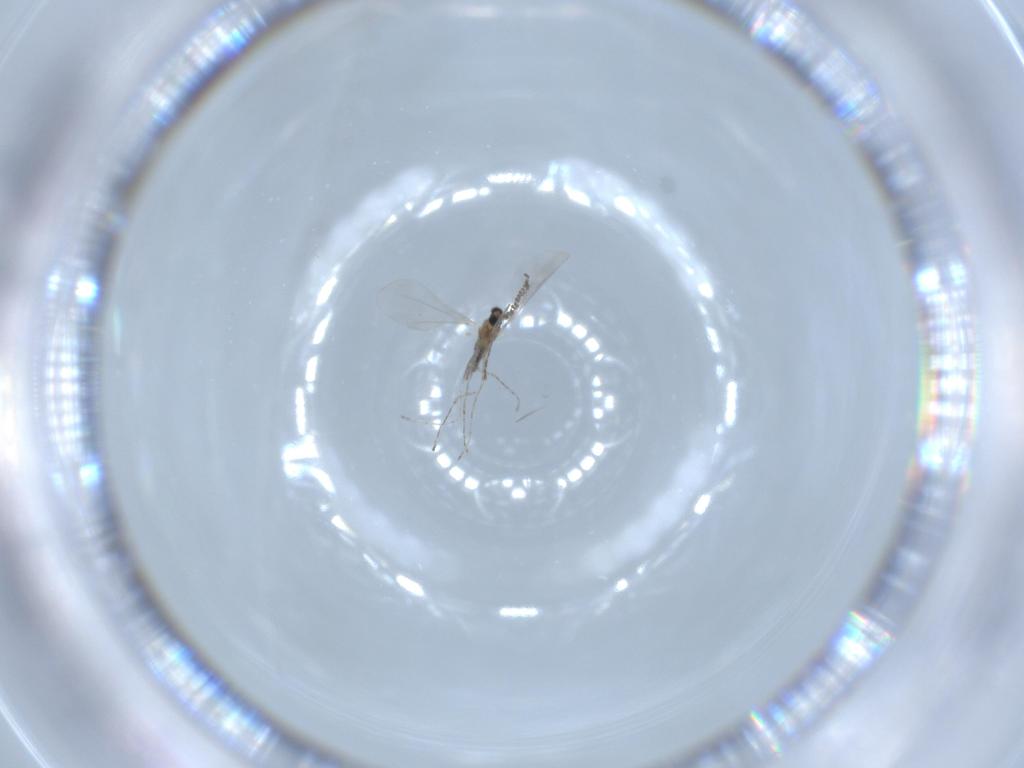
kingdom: Animalia
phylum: Arthropoda
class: Insecta
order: Diptera
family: Cecidomyiidae
